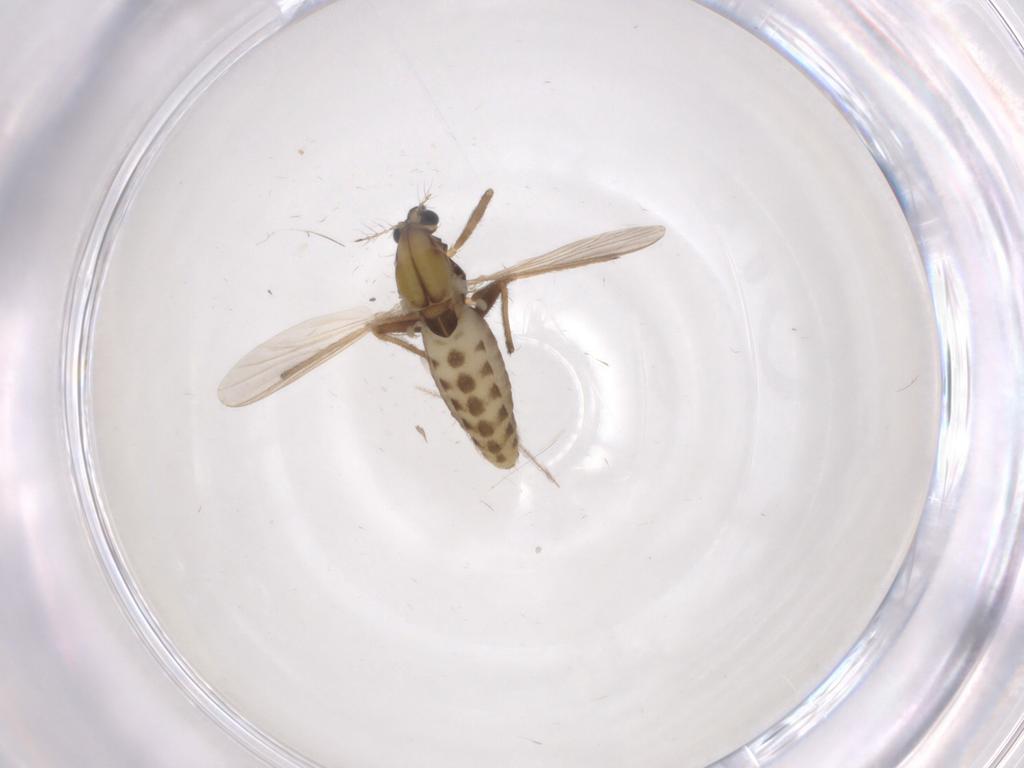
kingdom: Animalia
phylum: Arthropoda
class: Insecta
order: Diptera
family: Chironomidae
